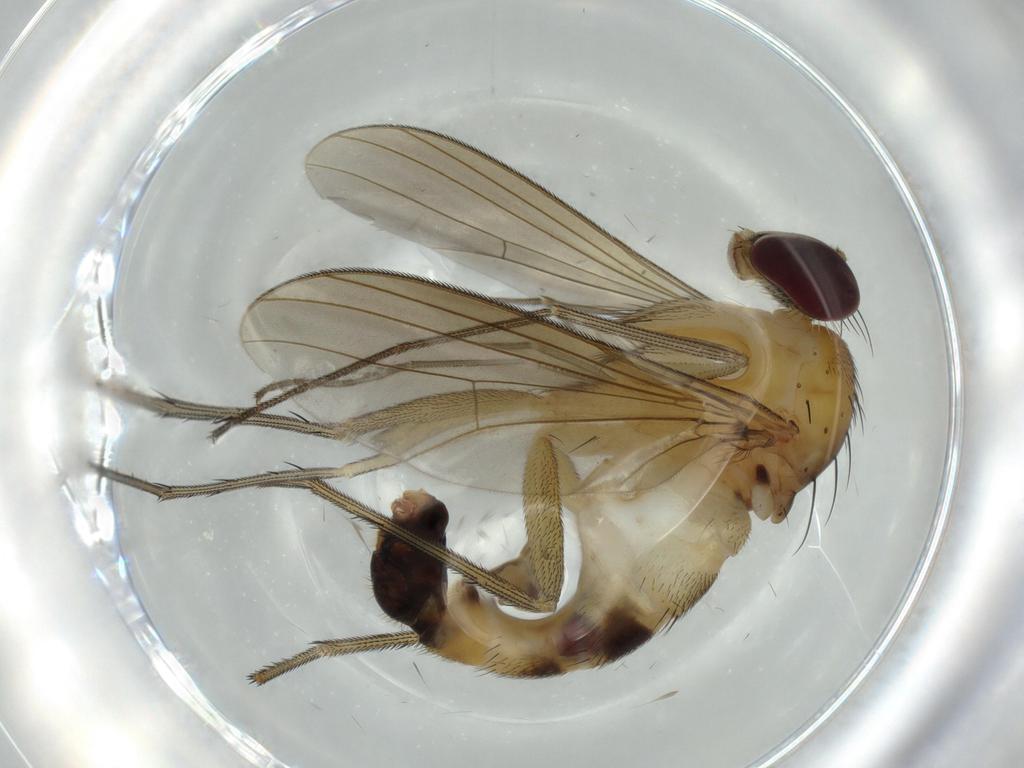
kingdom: Animalia
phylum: Arthropoda
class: Insecta
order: Diptera
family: Dolichopodidae
